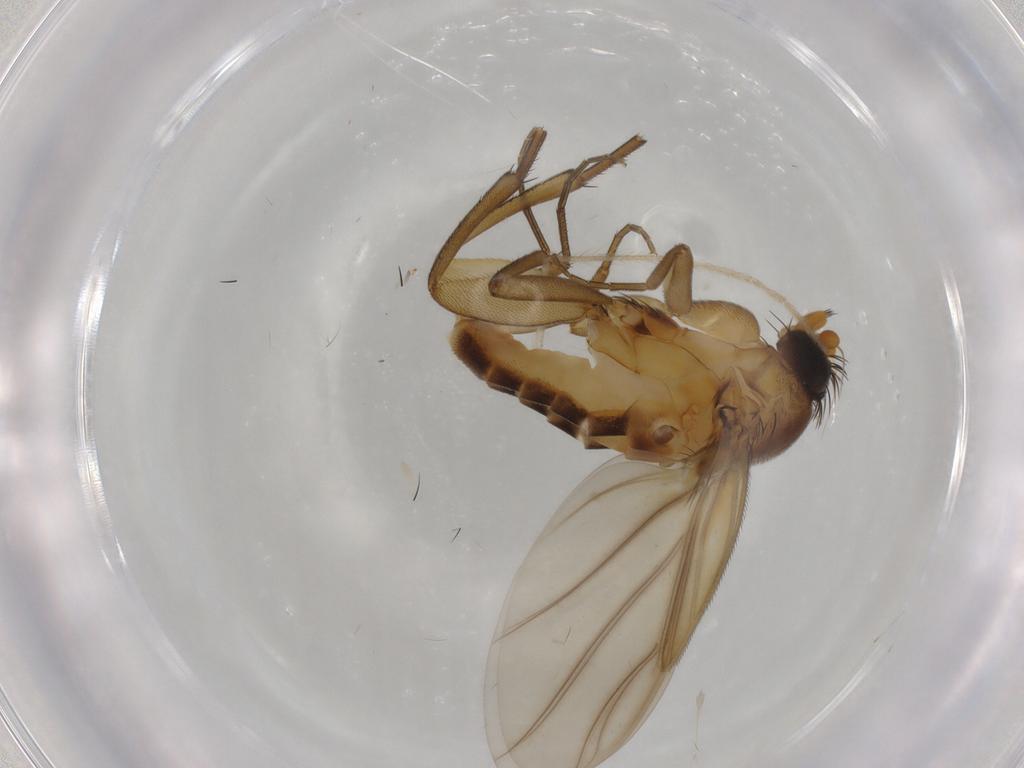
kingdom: Animalia
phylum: Arthropoda
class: Insecta
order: Diptera
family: Phoridae
